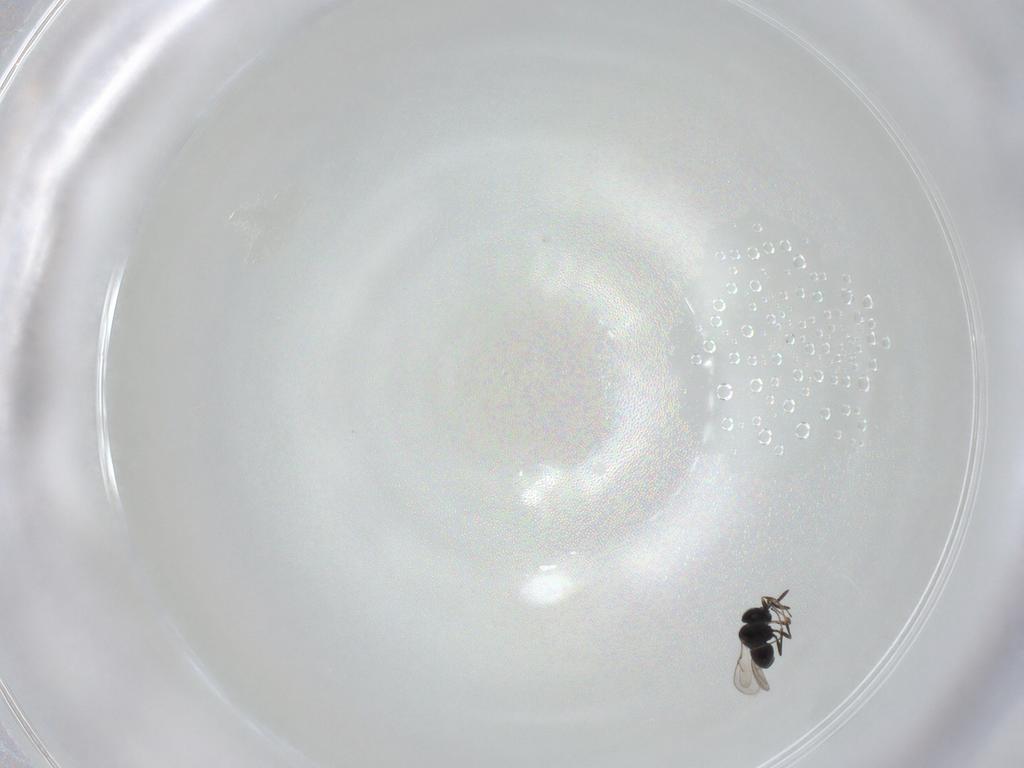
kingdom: Animalia
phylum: Arthropoda
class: Insecta
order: Hymenoptera
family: Scelionidae
